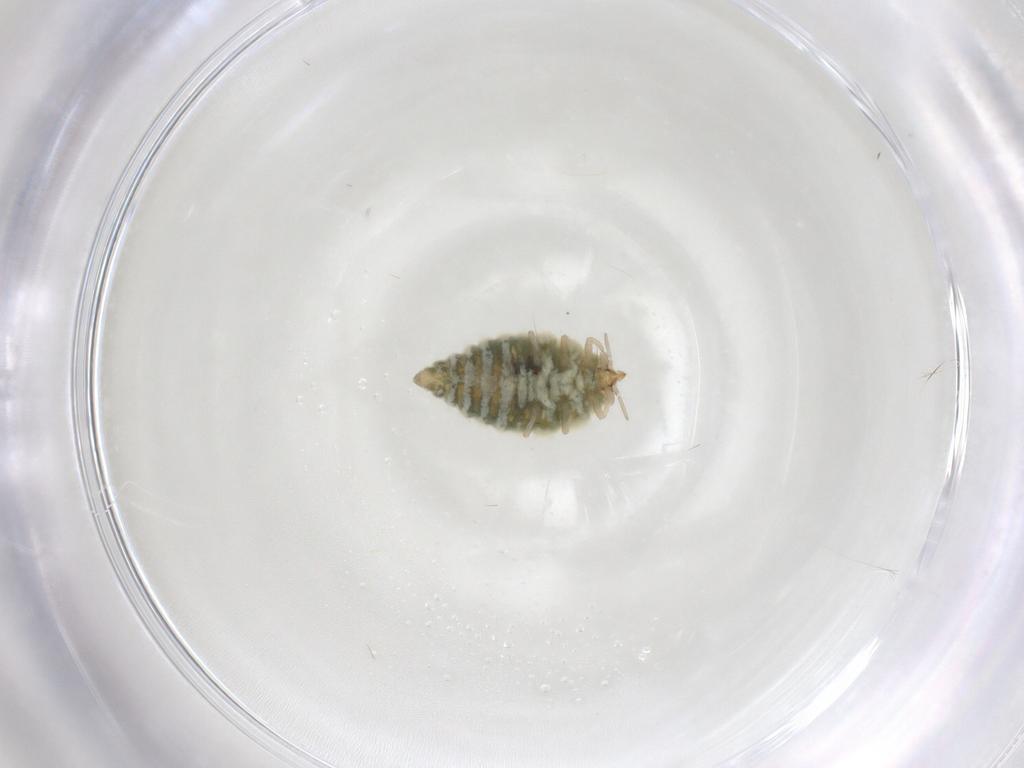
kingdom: Animalia
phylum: Arthropoda
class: Insecta
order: Neuroptera
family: Coniopterygidae
